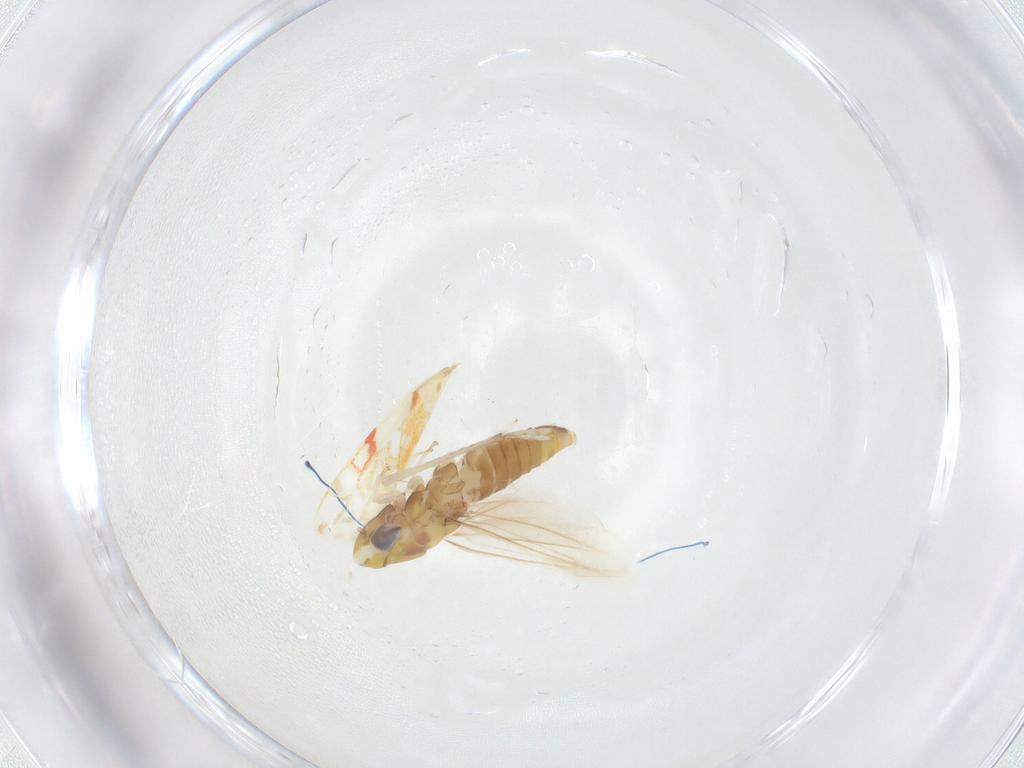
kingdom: Animalia
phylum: Arthropoda
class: Insecta
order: Hemiptera
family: Cicadellidae
